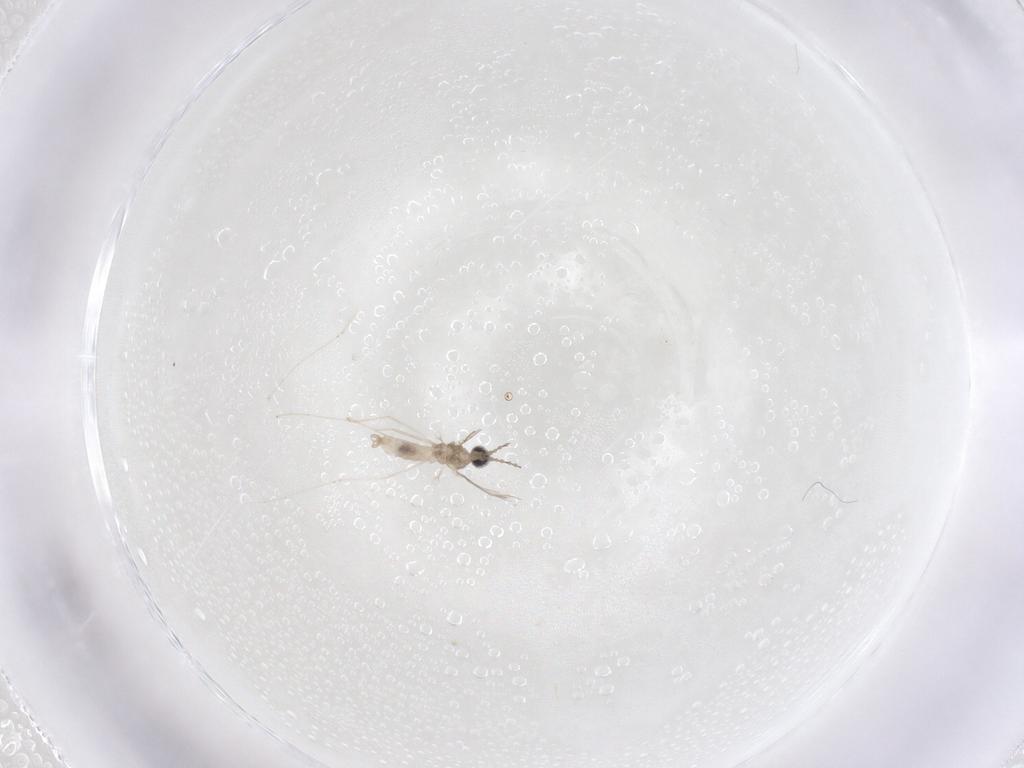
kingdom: Animalia
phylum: Arthropoda
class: Insecta
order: Diptera
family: Cecidomyiidae
